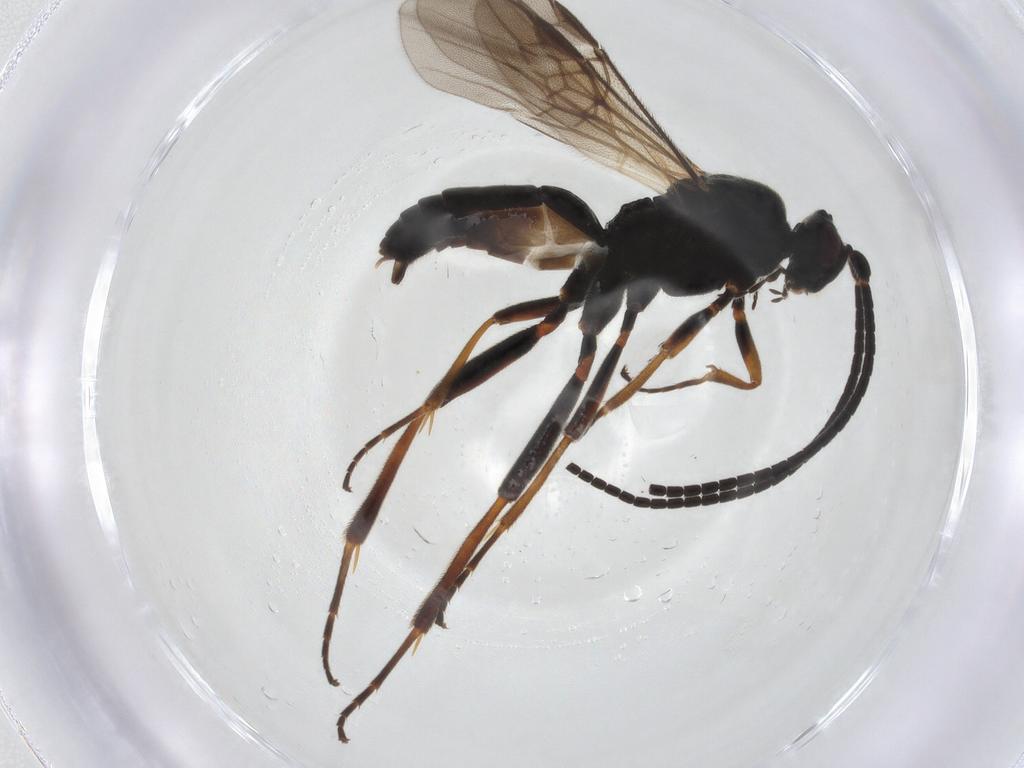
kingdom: Animalia
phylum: Arthropoda
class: Insecta
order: Hymenoptera
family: Braconidae
